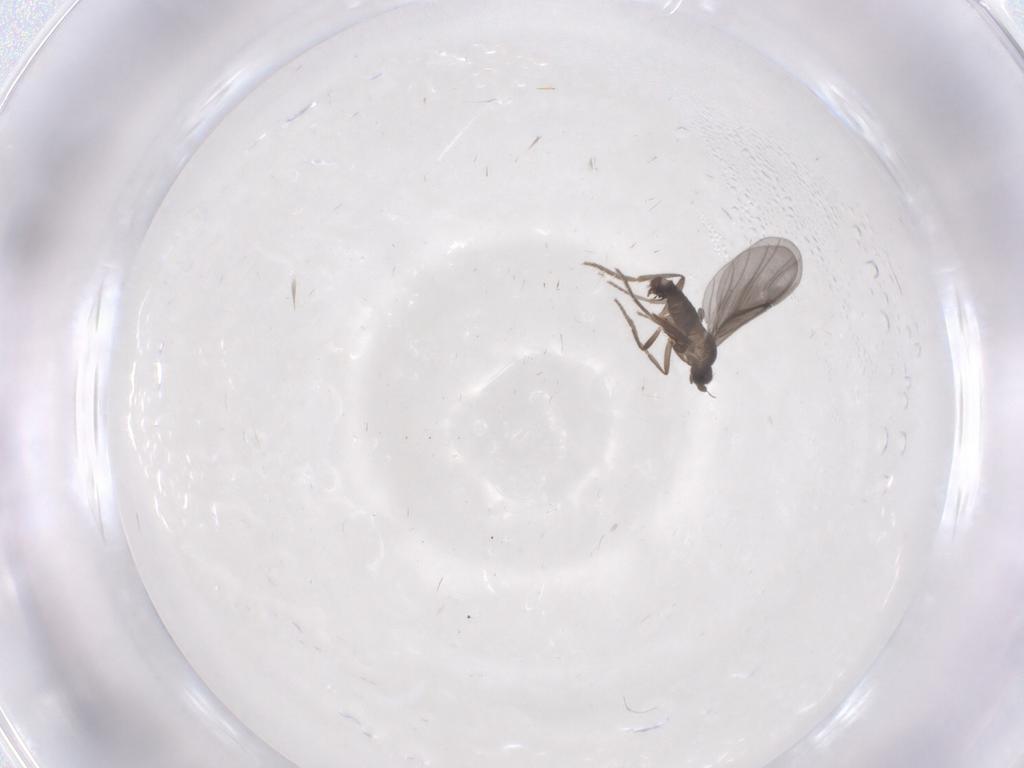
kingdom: Animalia
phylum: Arthropoda
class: Insecta
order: Diptera
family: Cecidomyiidae
